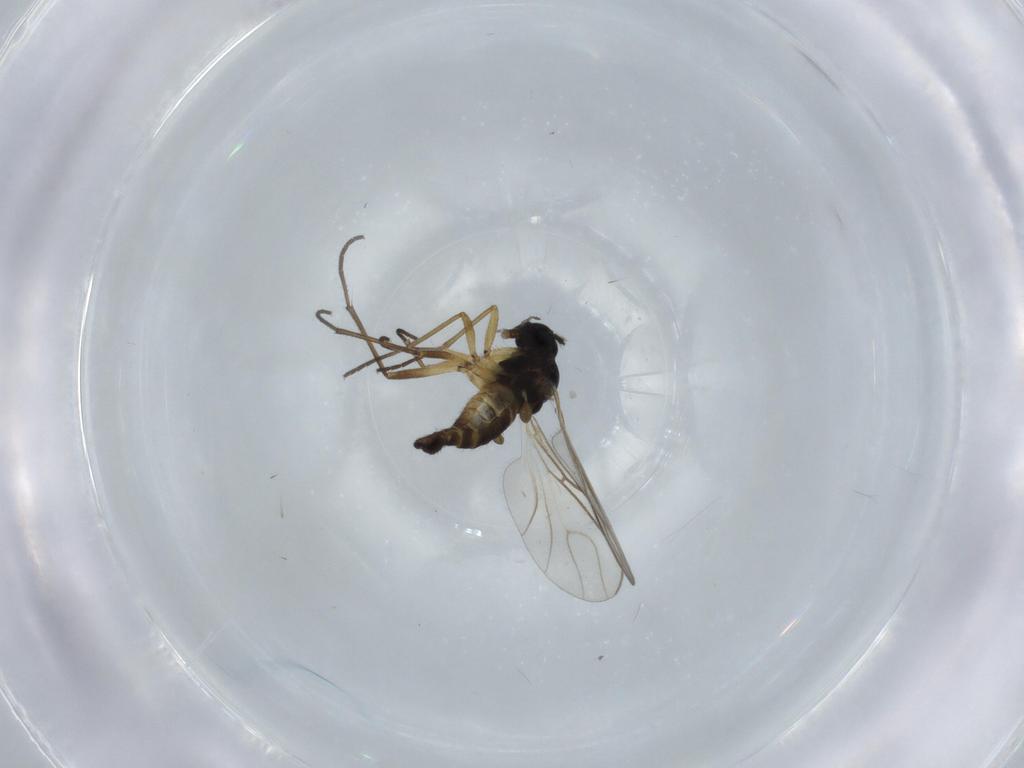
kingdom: Animalia
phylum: Arthropoda
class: Insecta
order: Diptera
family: Sciaridae
